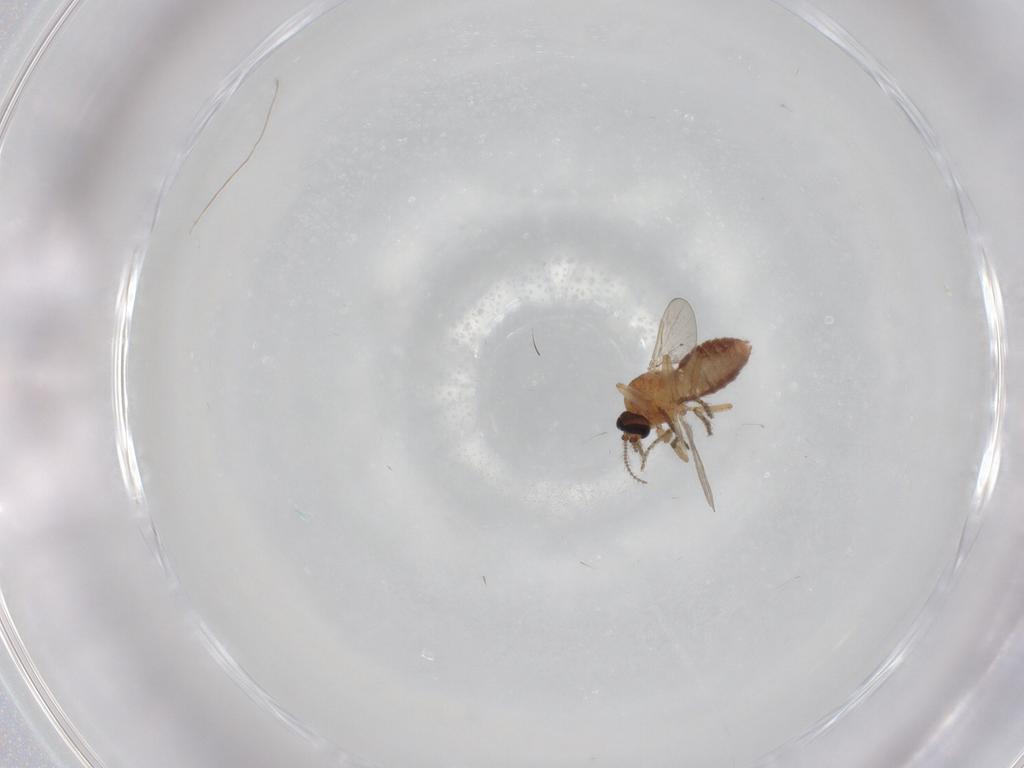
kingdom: Animalia
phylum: Arthropoda
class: Insecta
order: Diptera
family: Ceratopogonidae
